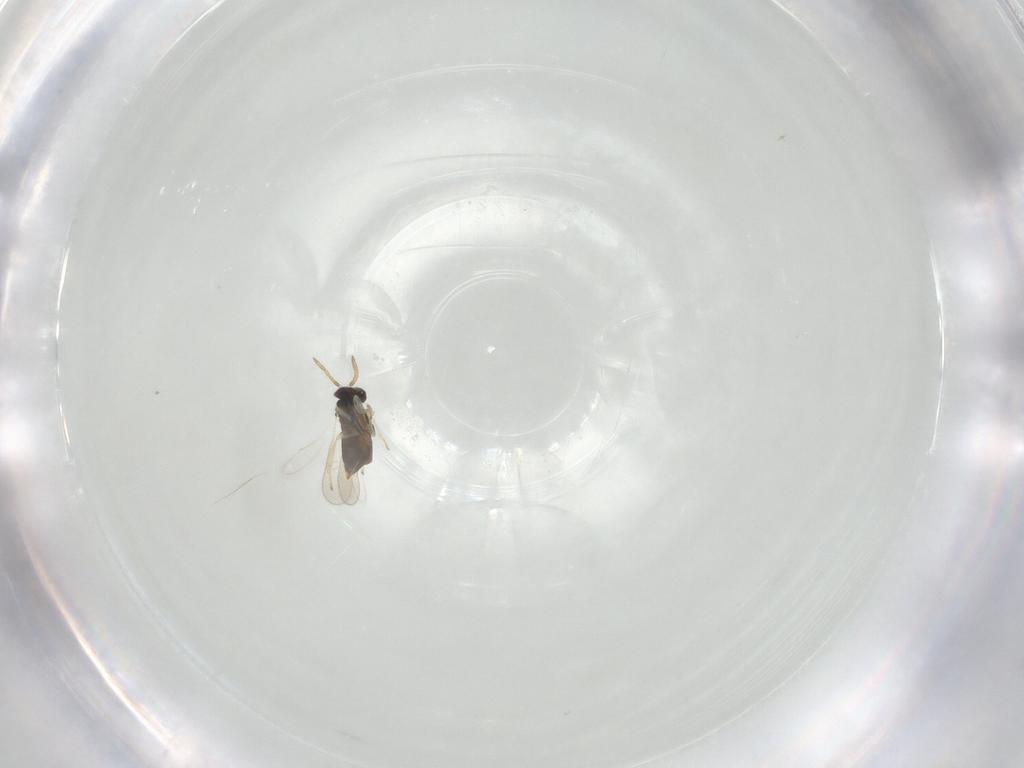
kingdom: Animalia
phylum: Arthropoda
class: Insecta
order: Hymenoptera
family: Aphelinidae
